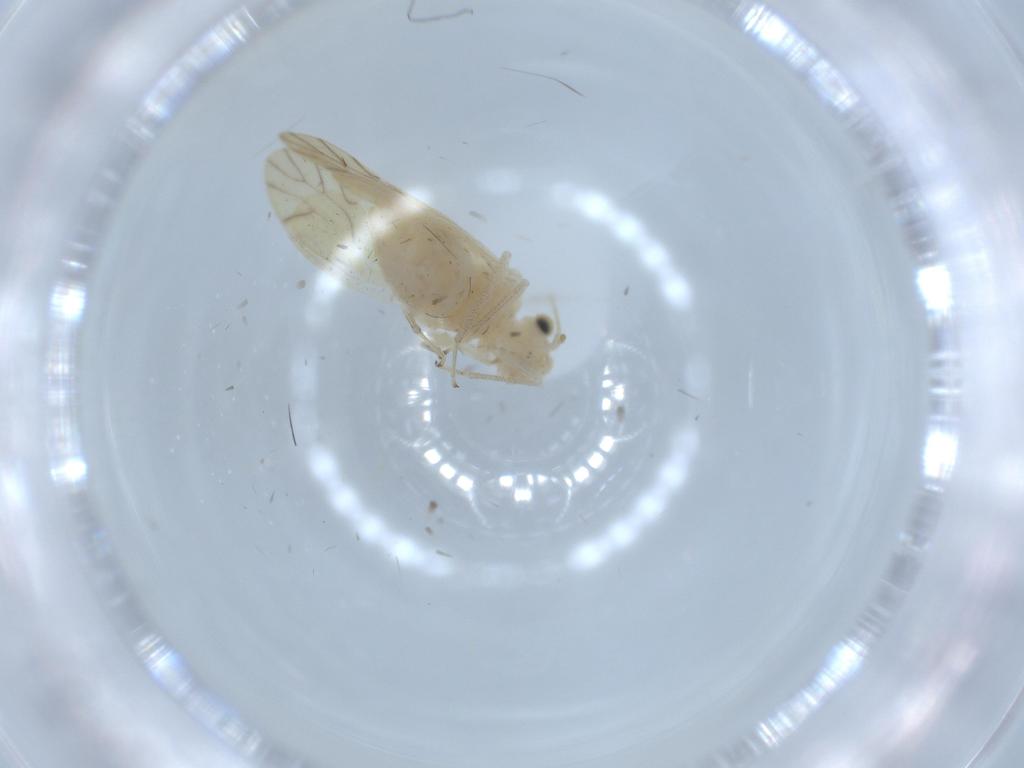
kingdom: Animalia
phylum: Arthropoda
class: Insecta
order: Psocodea
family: Caeciliusidae
